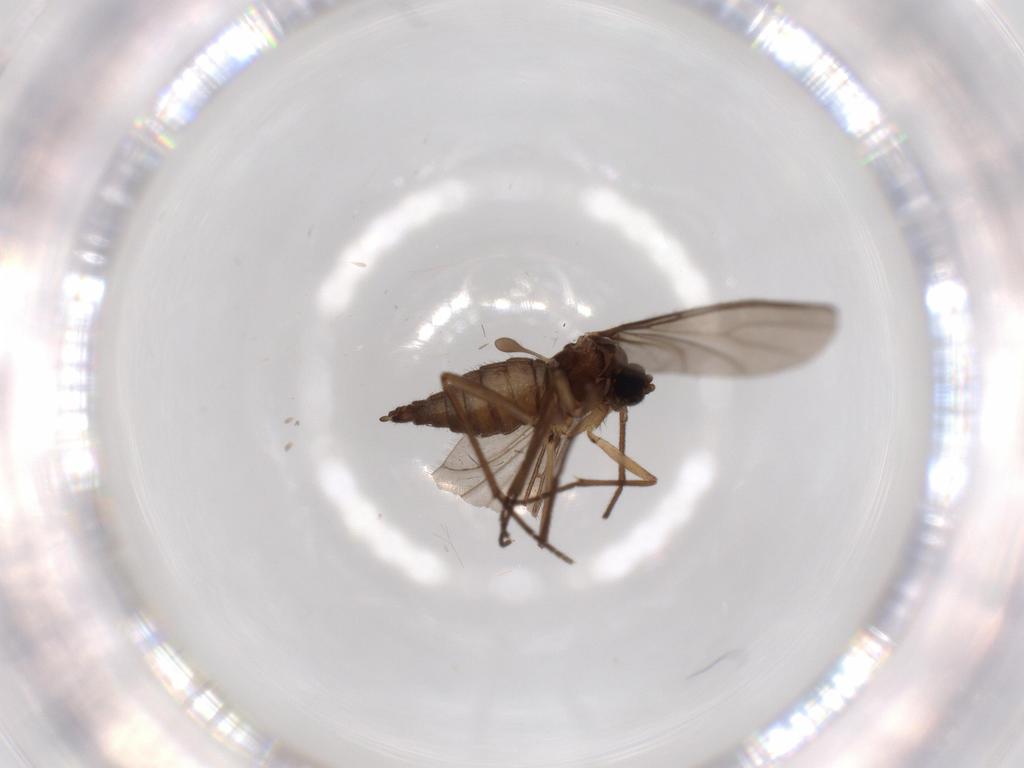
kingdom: Animalia
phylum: Arthropoda
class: Insecta
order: Diptera
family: Sciaridae
